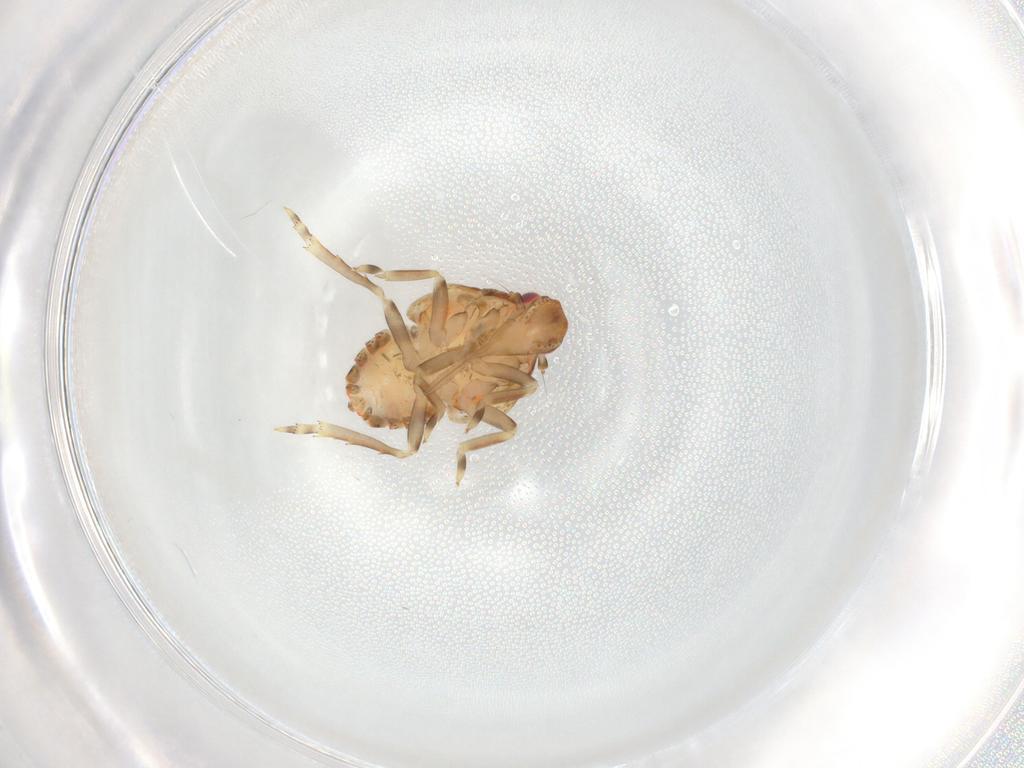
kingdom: Animalia
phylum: Arthropoda
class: Insecta
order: Hemiptera
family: Flatidae
